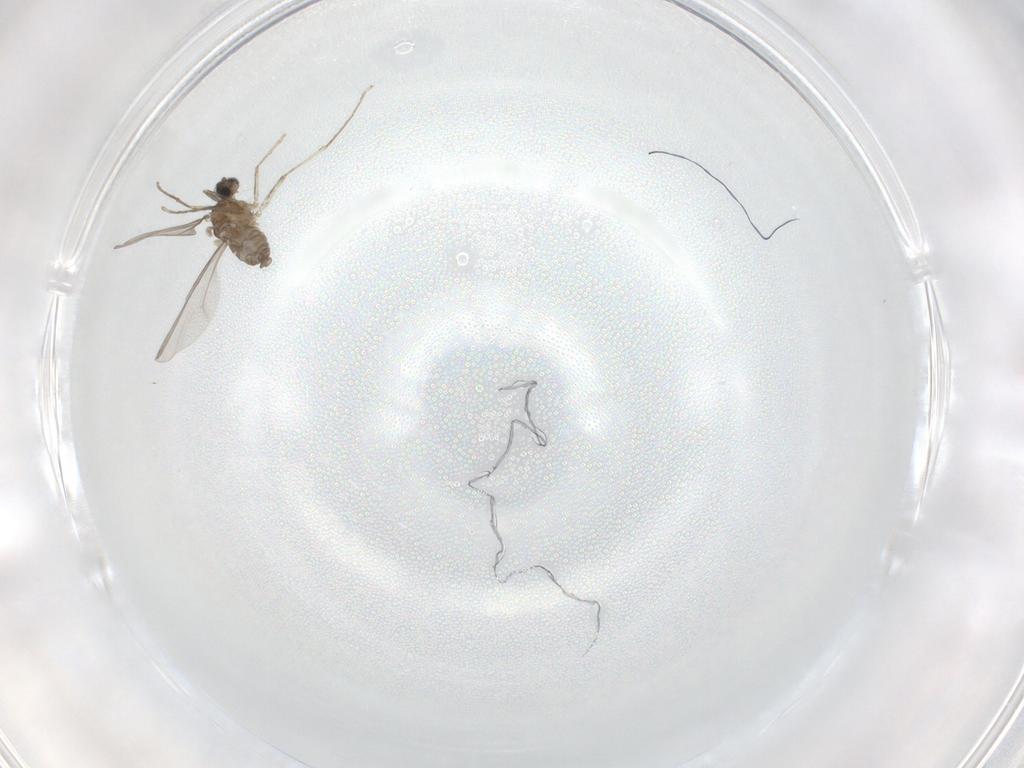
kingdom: Animalia
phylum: Arthropoda
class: Insecta
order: Diptera
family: Cecidomyiidae
